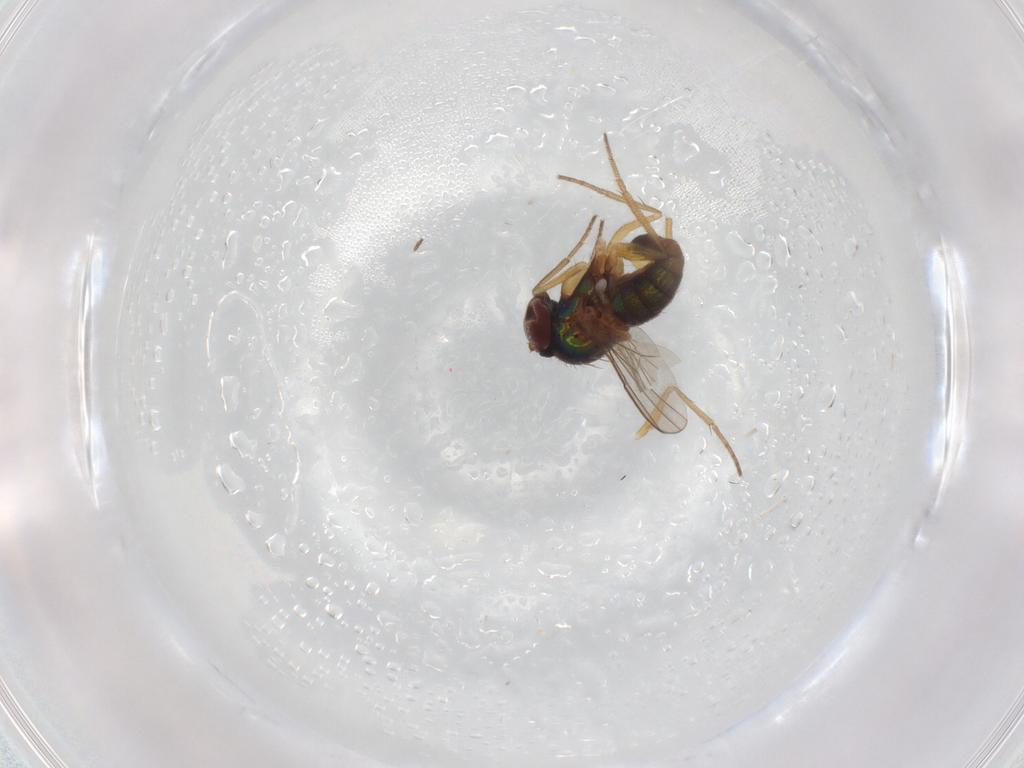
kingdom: Animalia
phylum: Arthropoda
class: Insecta
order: Diptera
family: Dolichopodidae
